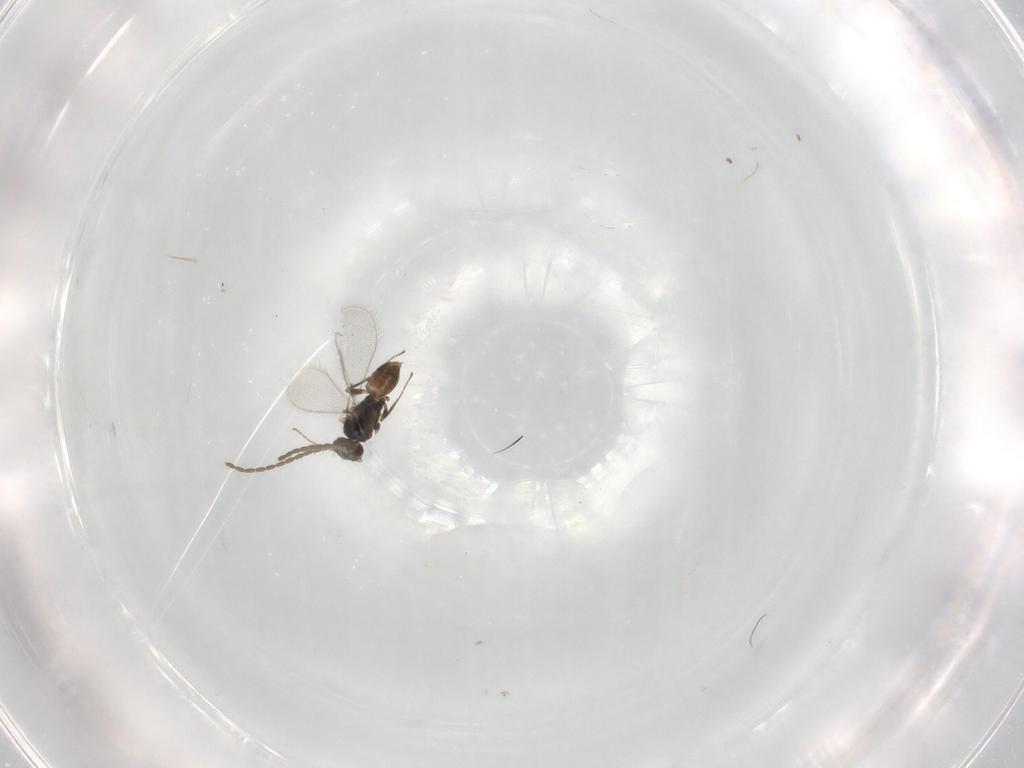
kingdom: Animalia
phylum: Arthropoda
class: Insecta
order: Hymenoptera
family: Mymaridae
